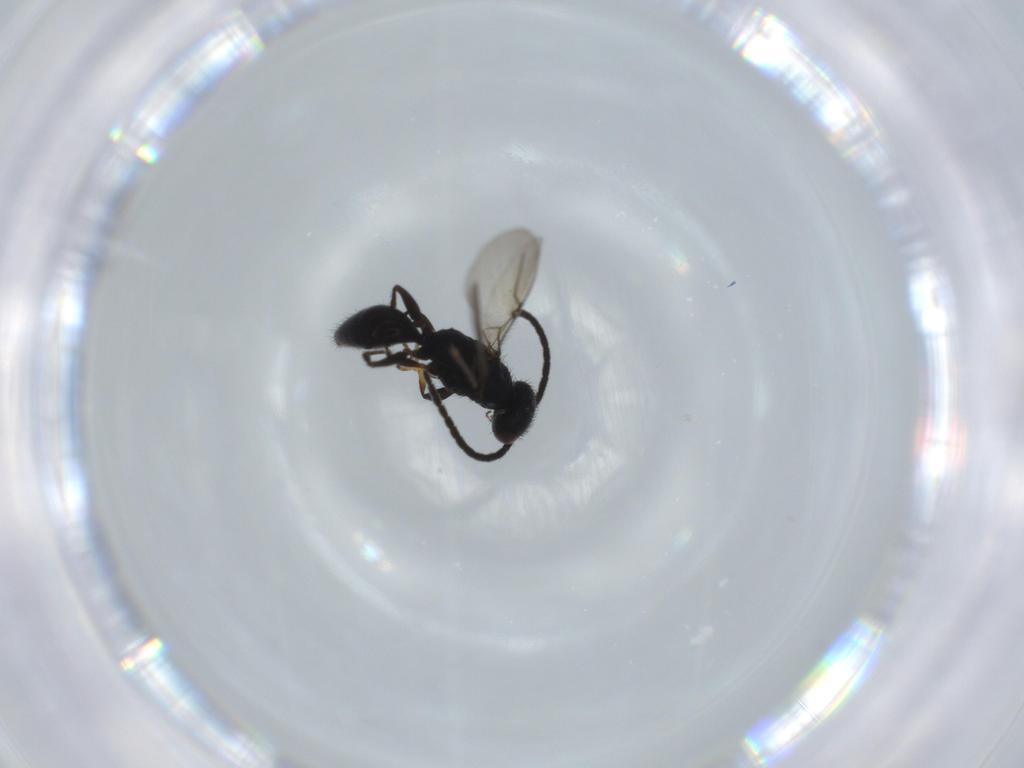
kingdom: Animalia
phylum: Arthropoda
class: Insecta
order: Hymenoptera
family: Bethylidae
